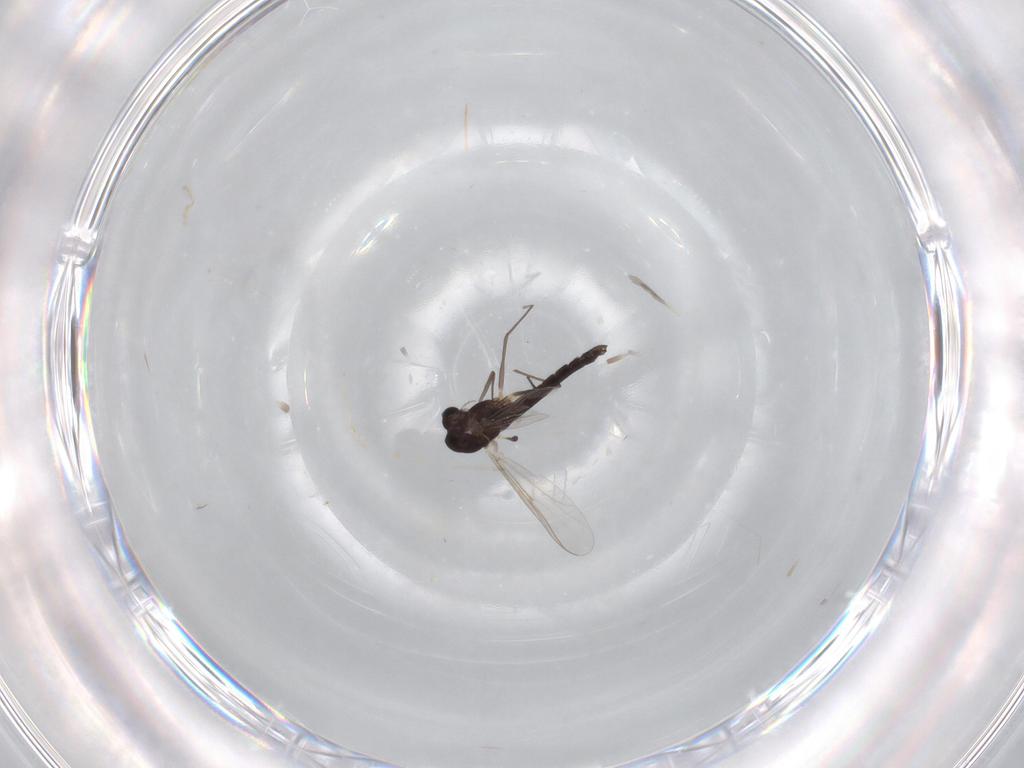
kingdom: Animalia
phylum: Arthropoda
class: Insecta
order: Diptera
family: Chironomidae
